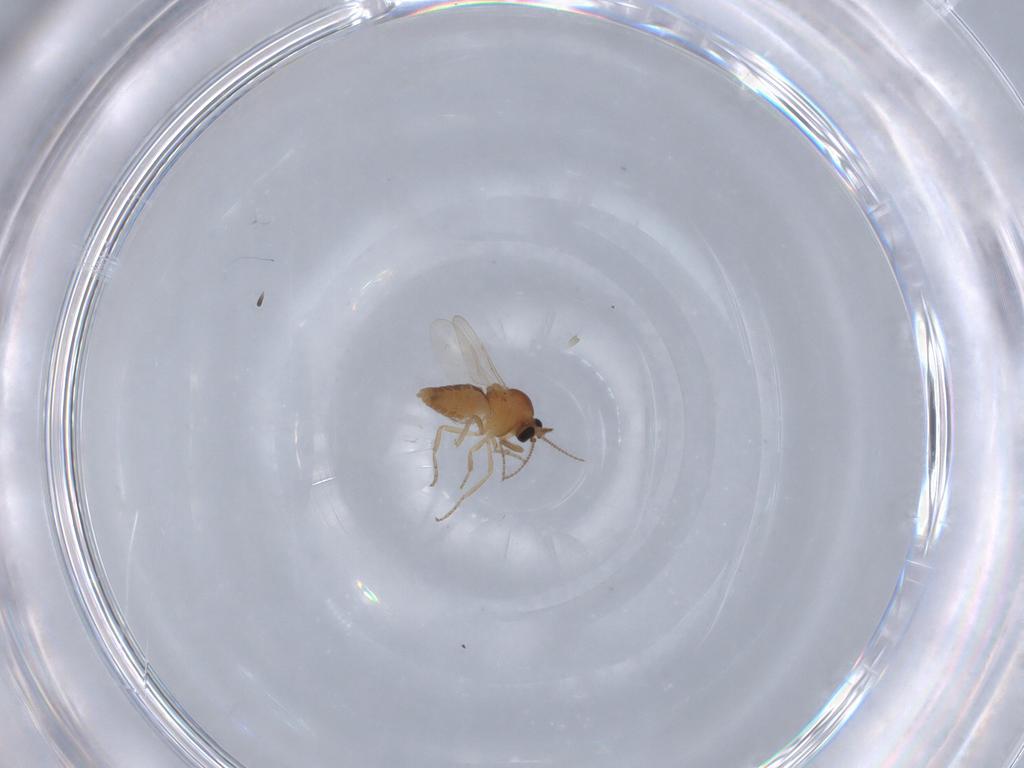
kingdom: Animalia
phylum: Arthropoda
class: Insecta
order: Diptera
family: Ceratopogonidae
